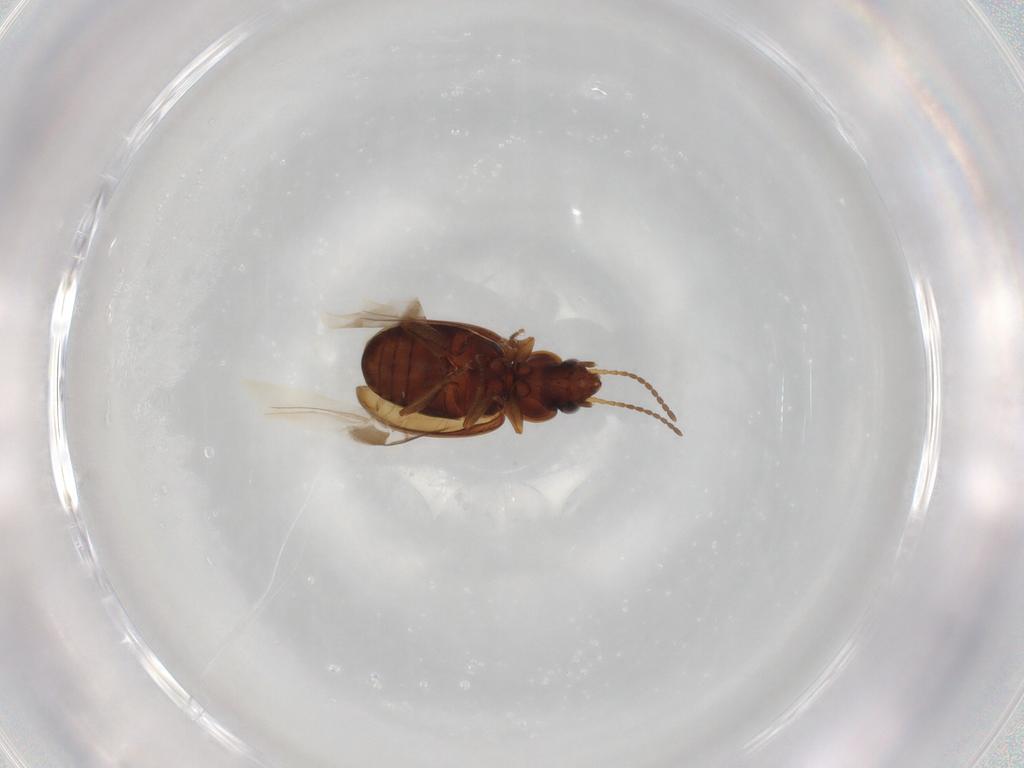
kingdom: Animalia
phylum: Arthropoda
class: Insecta
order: Coleoptera
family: Carabidae
